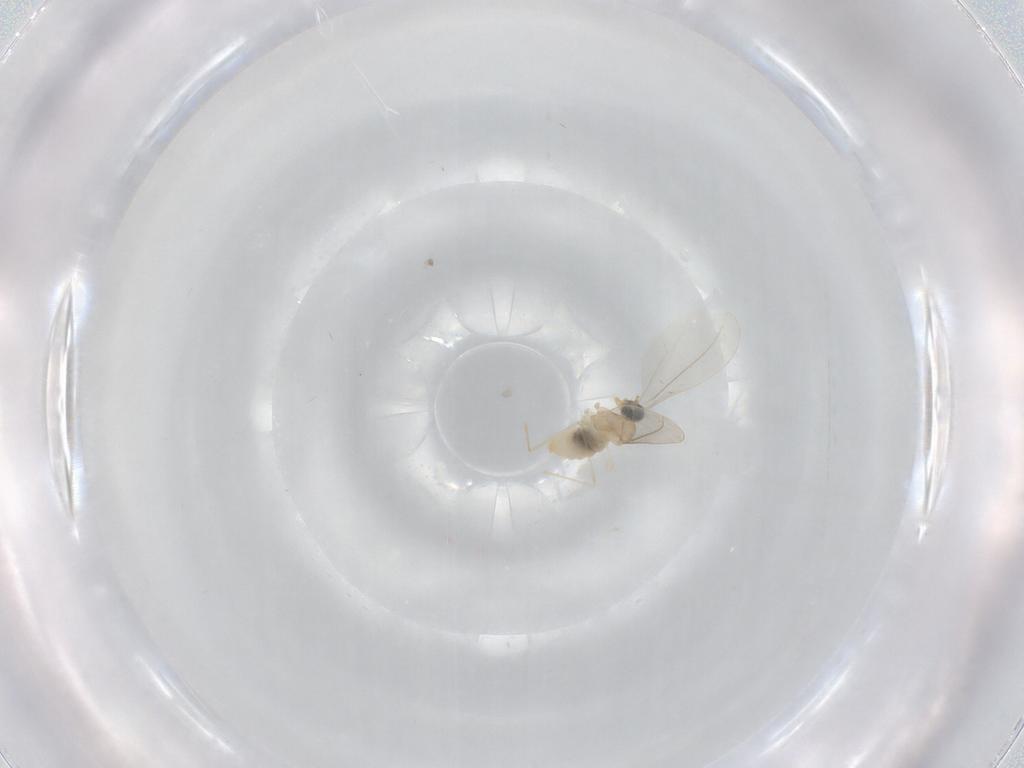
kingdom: Animalia
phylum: Arthropoda
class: Insecta
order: Diptera
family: Cecidomyiidae
